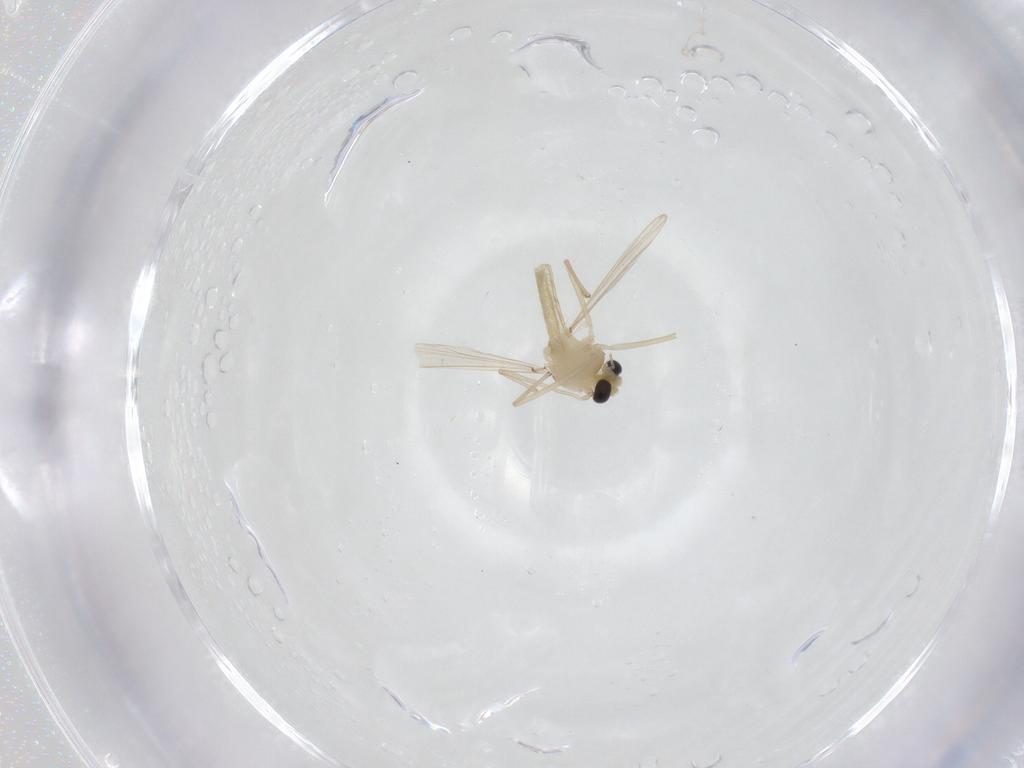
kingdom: Animalia
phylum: Arthropoda
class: Insecta
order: Diptera
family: Chironomidae
